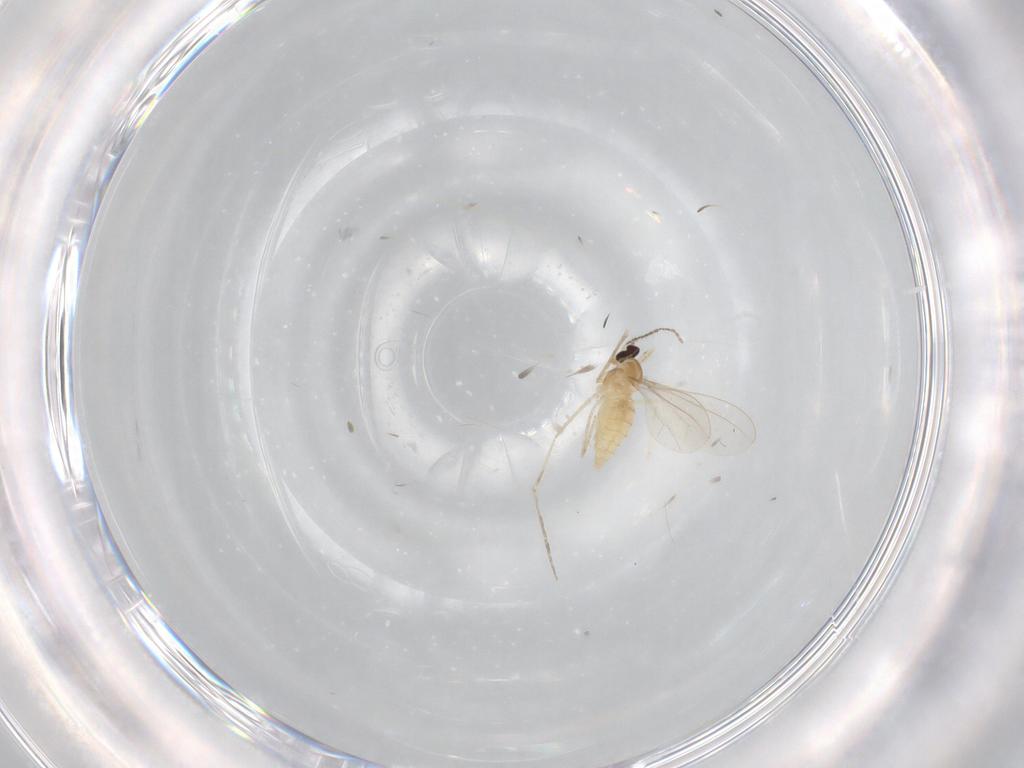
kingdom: Animalia
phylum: Arthropoda
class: Insecta
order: Diptera
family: Cecidomyiidae
